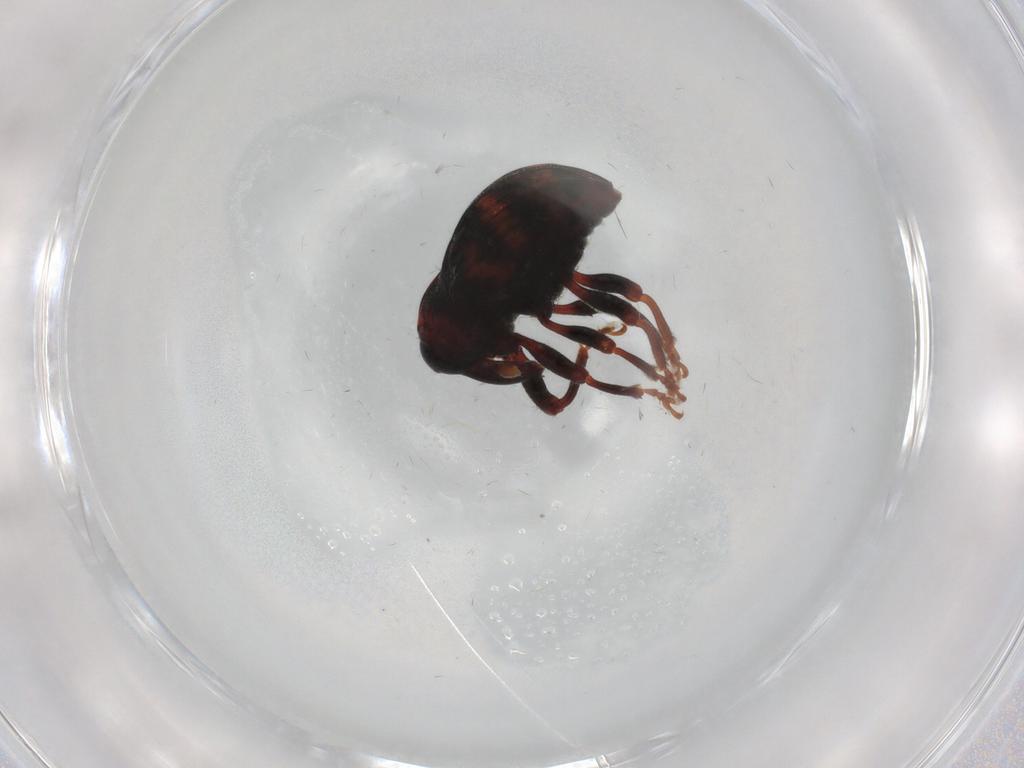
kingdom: Animalia
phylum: Arthropoda
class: Insecta
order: Coleoptera
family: Curculionidae
